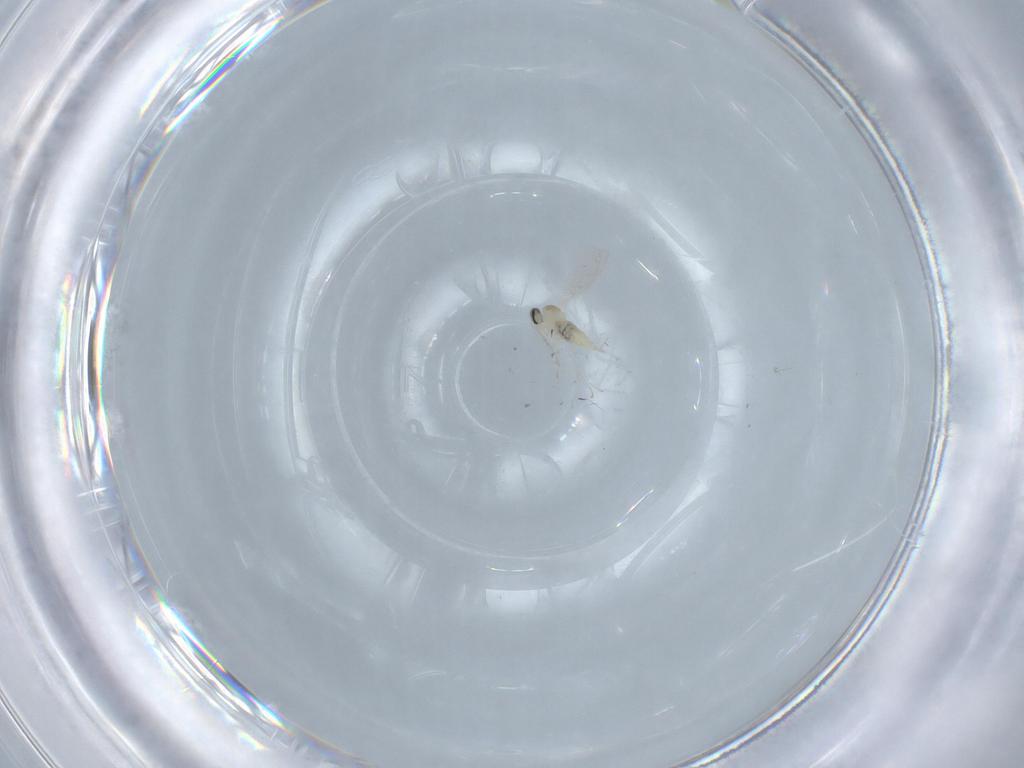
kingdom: Animalia
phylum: Arthropoda
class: Insecta
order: Diptera
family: Cecidomyiidae
